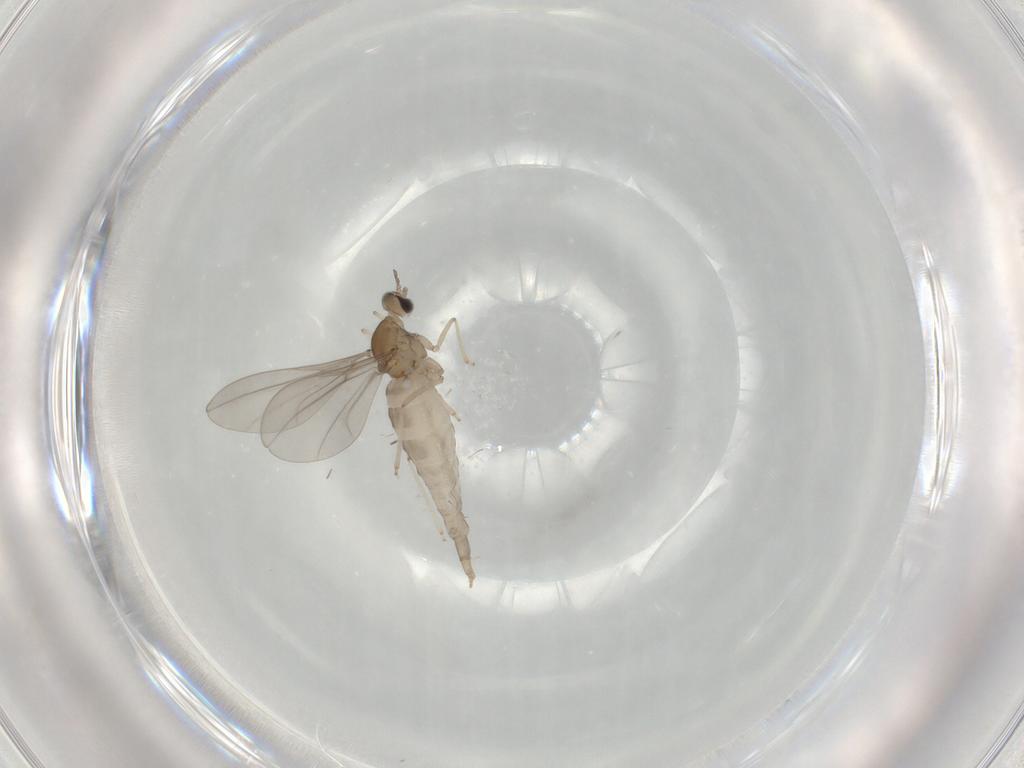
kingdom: Animalia
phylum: Arthropoda
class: Insecta
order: Diptera
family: Cecidomyiidae
